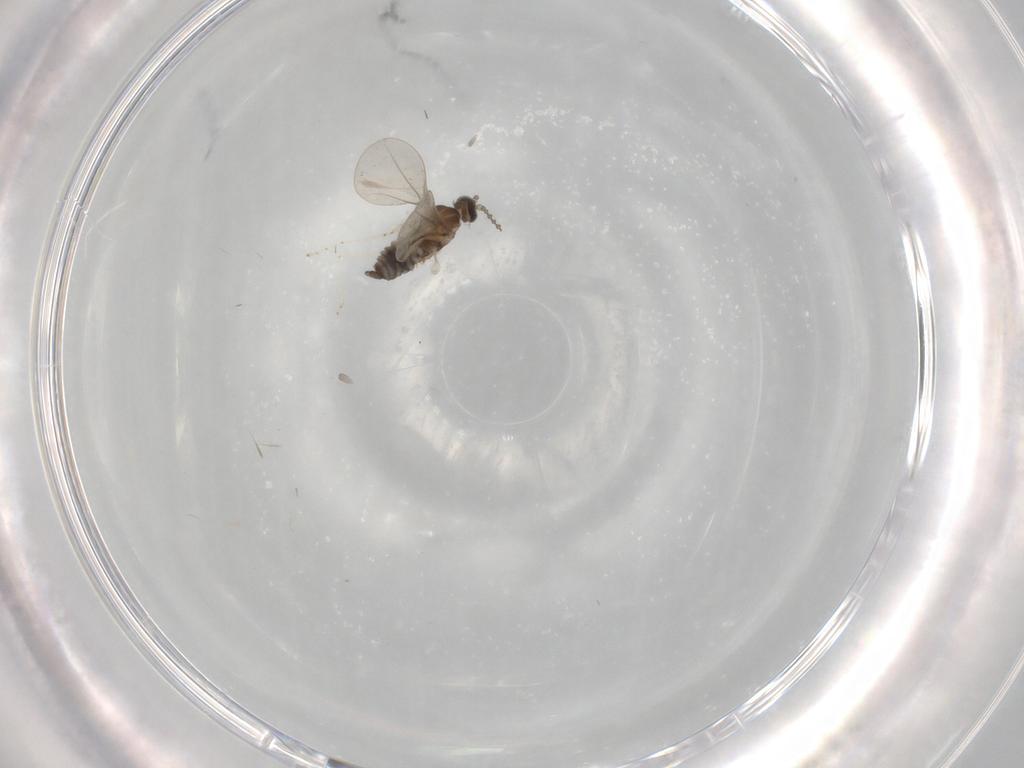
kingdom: Animalia
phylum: Arthropoda
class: Insecta
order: Diptera
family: Cecidomyiidae
